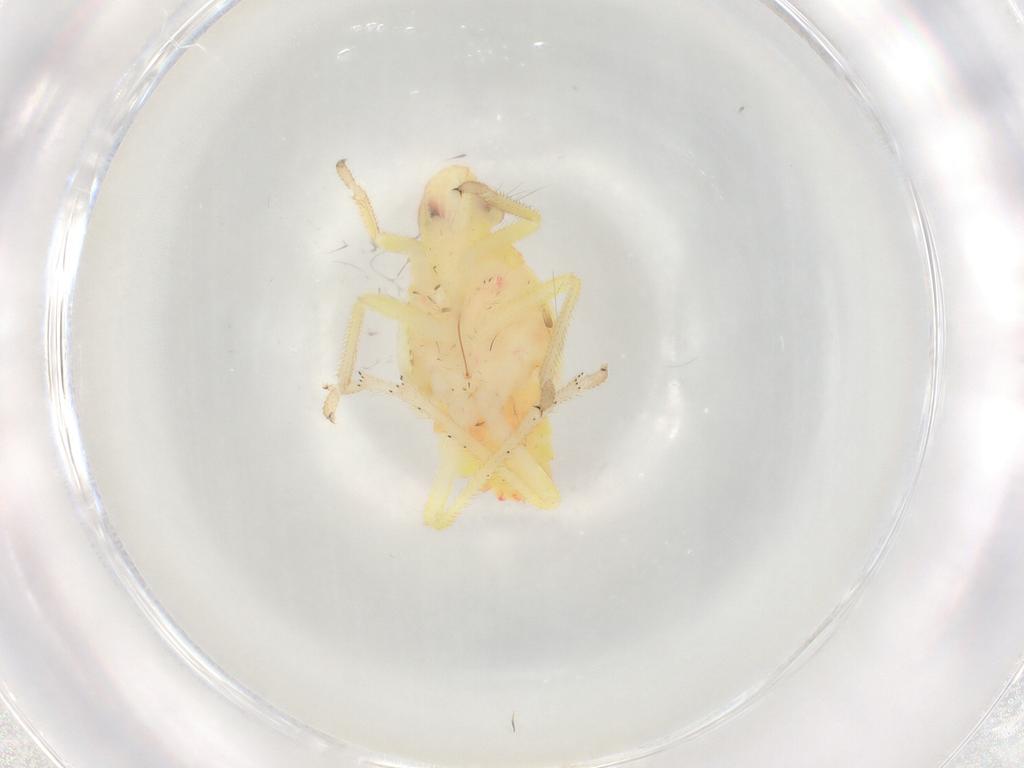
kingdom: Animalia
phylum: Arthropoda
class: Insecta
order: Hemiptera
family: Tropiduchidae
